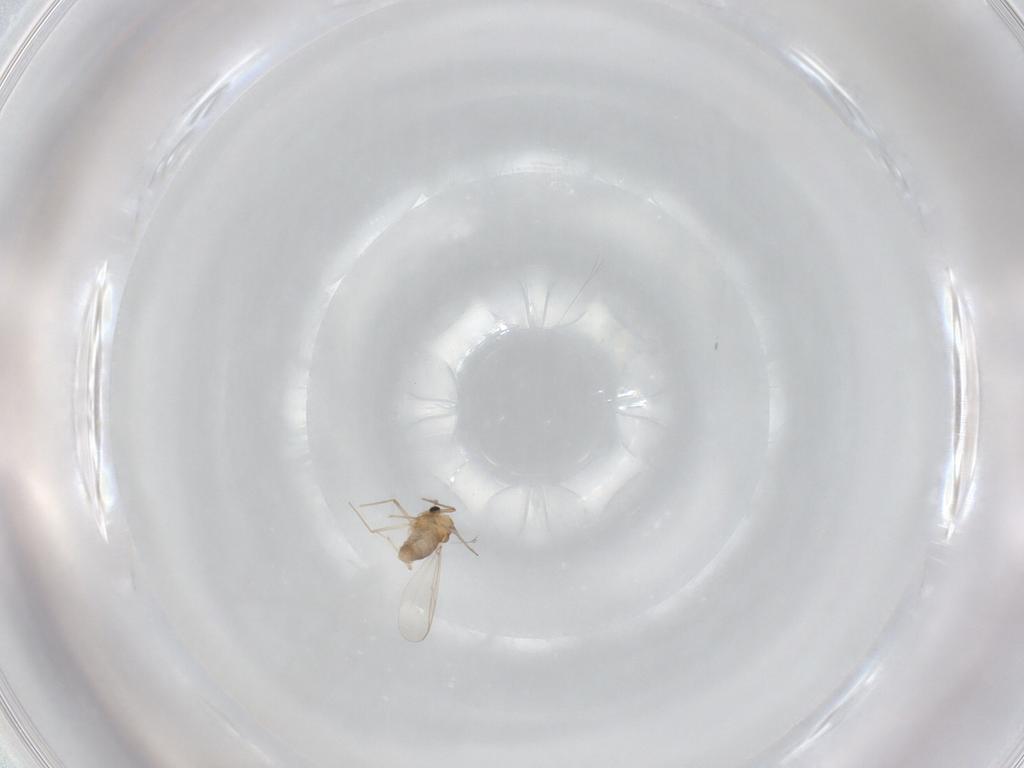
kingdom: Animalia
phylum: Arthropoda
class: Insecta
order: Diptera
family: Chironomidae
